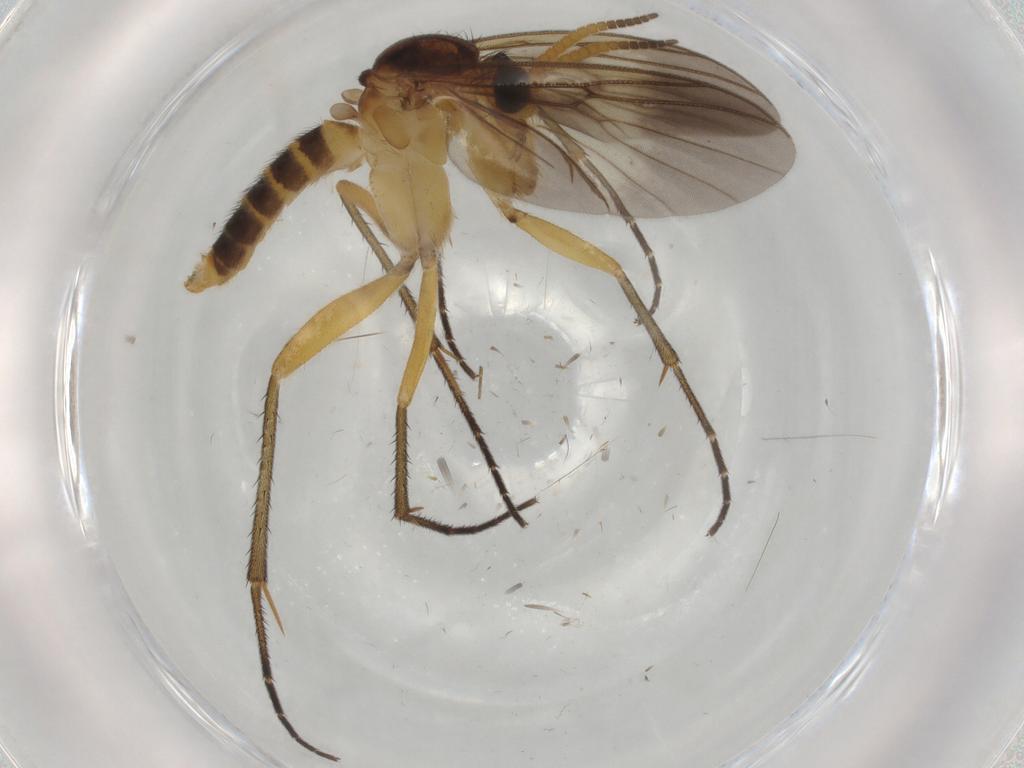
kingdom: Animalia
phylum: Arthropoda
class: Insecta
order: Diptera
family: Mycetophilidae
